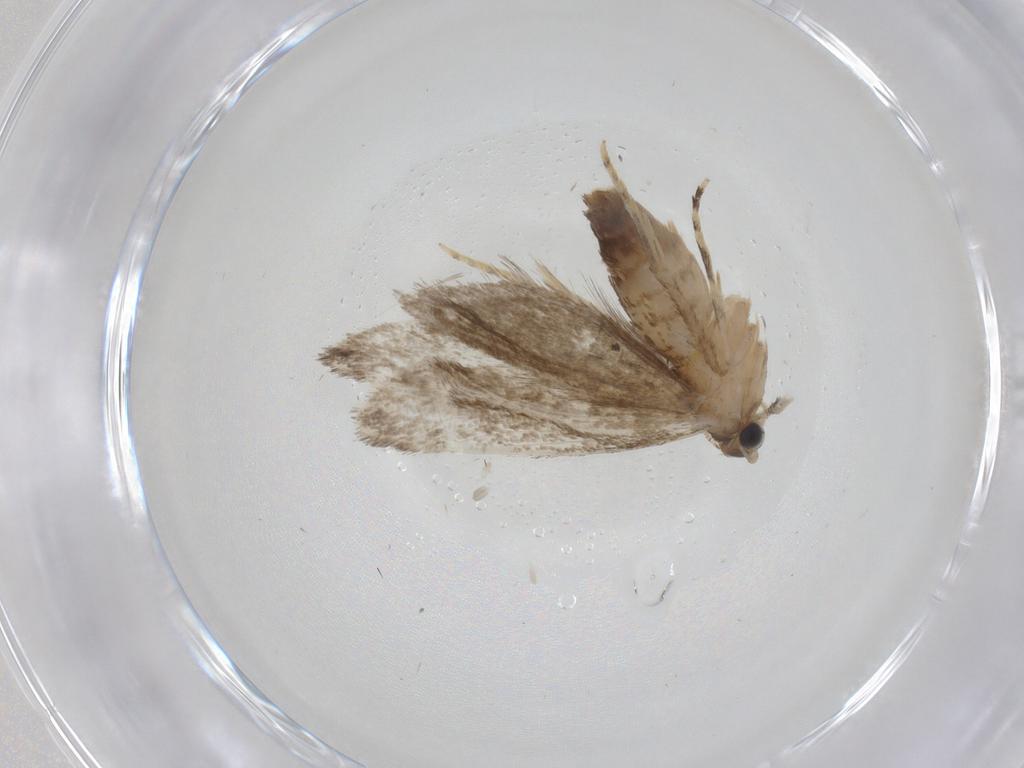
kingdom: Animalia
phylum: Arthropoda
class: Insecta
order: Lepidoptera
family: Tineidae
